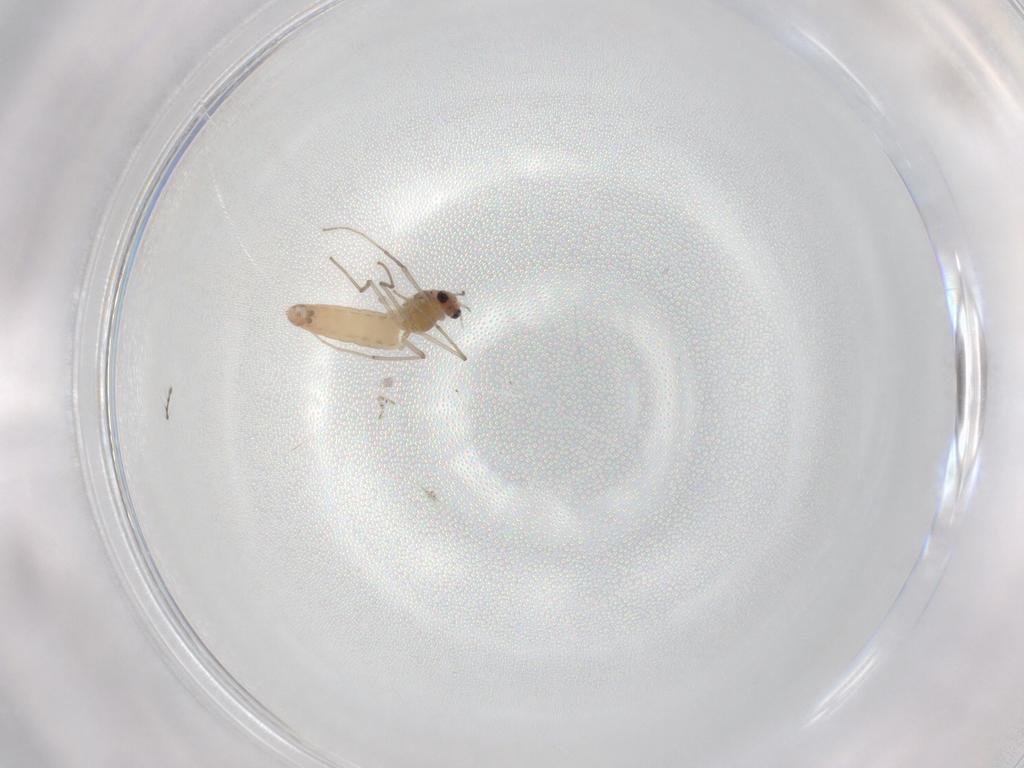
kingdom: Animalia
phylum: Arthropoda
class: Insecta
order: Diptera
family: Chironomidae
